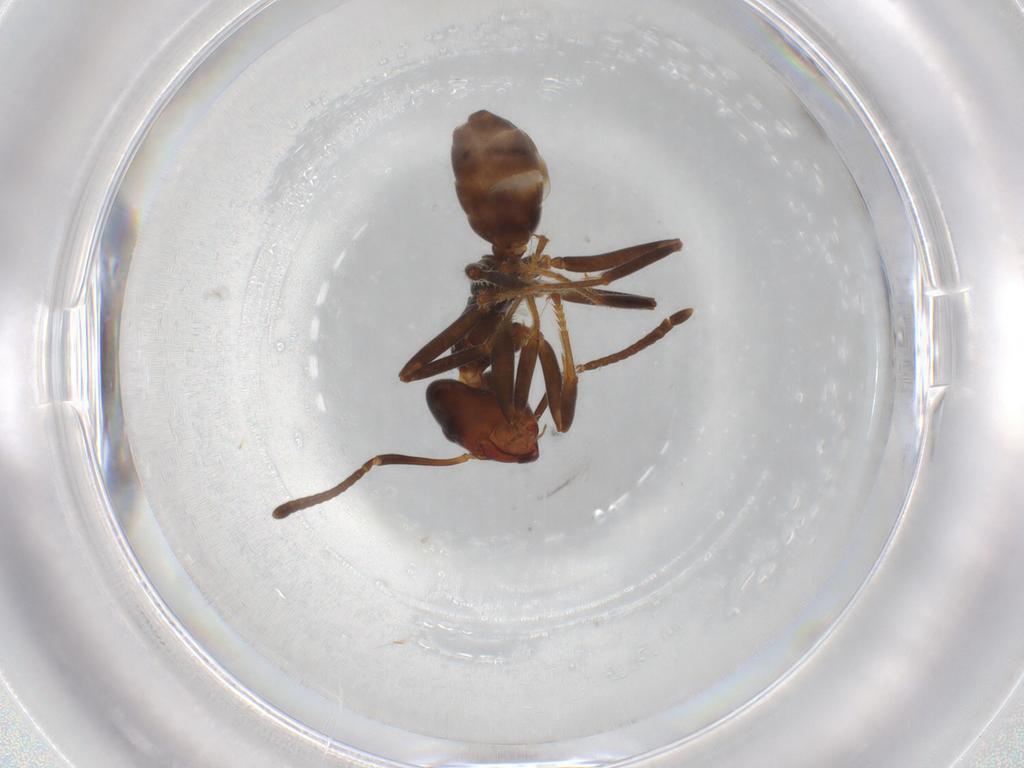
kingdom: Animalia
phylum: Arthropoda
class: Insecta
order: Hymenoptera
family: Formicidae
